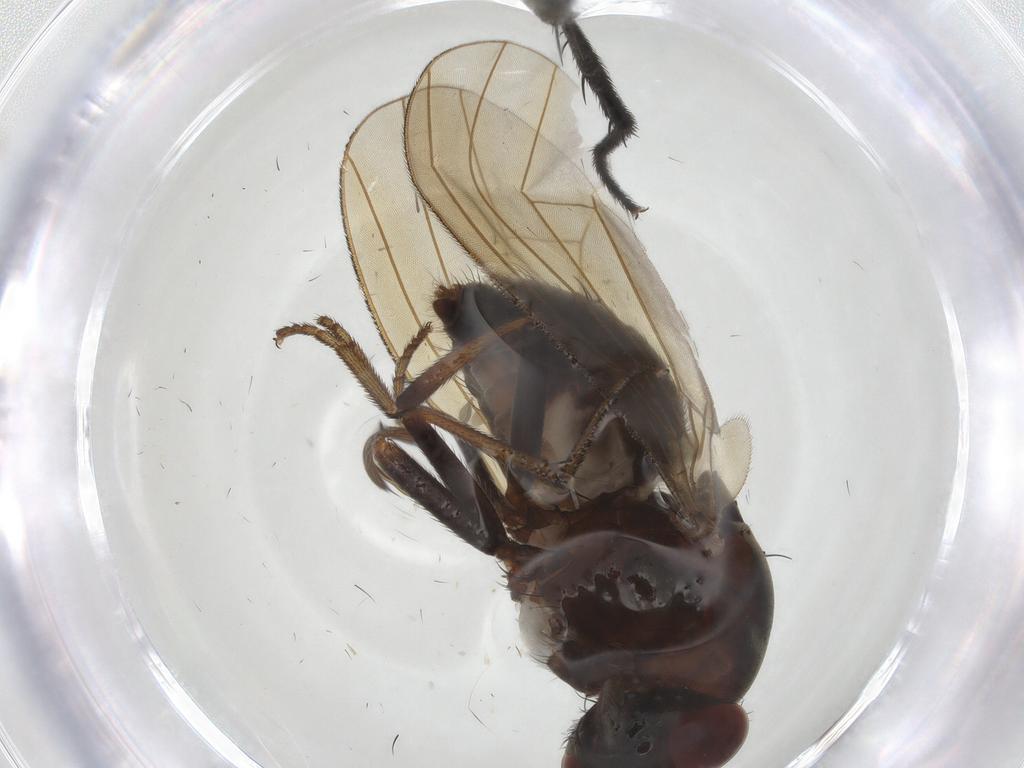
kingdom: Animalia
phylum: Arthropoda
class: Insecta
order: Diptera
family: Tachinidae
